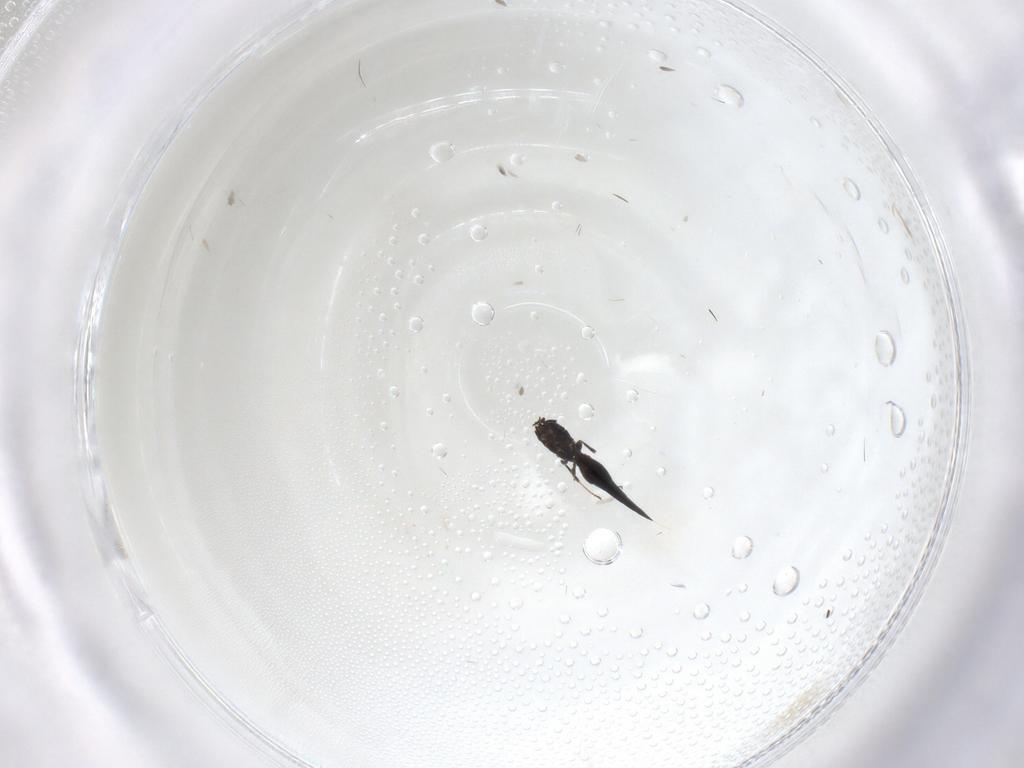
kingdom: Animalia
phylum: Arthropoda
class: Insecta
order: Hymenoptera
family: Scelionidae
